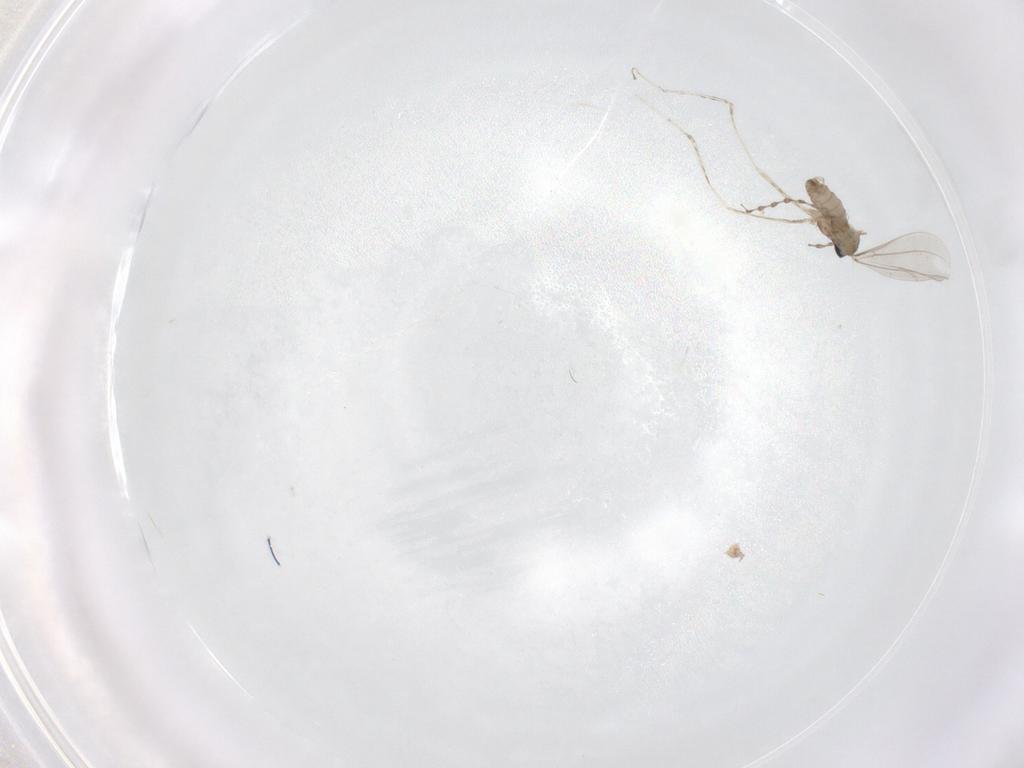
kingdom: Animalia
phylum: Arthropoda
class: Insecta
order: Diptera
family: Cecidomyiidae
